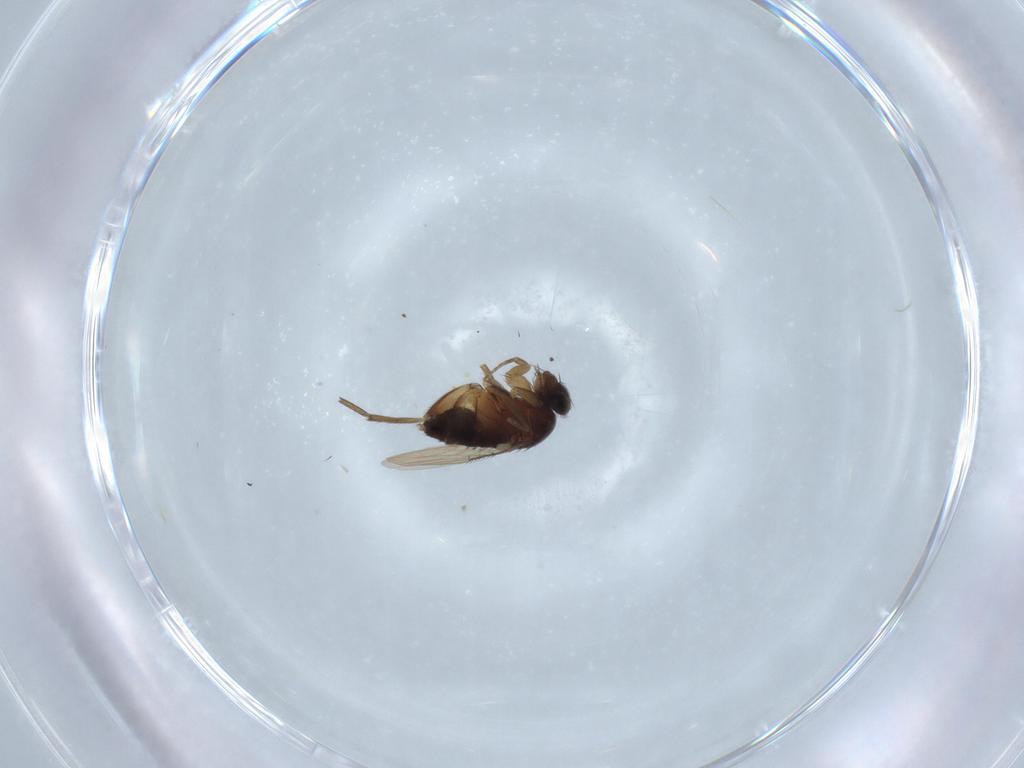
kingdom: Animalia
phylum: Arthropoda
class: Insecta
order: Diptera
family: Phoridae
